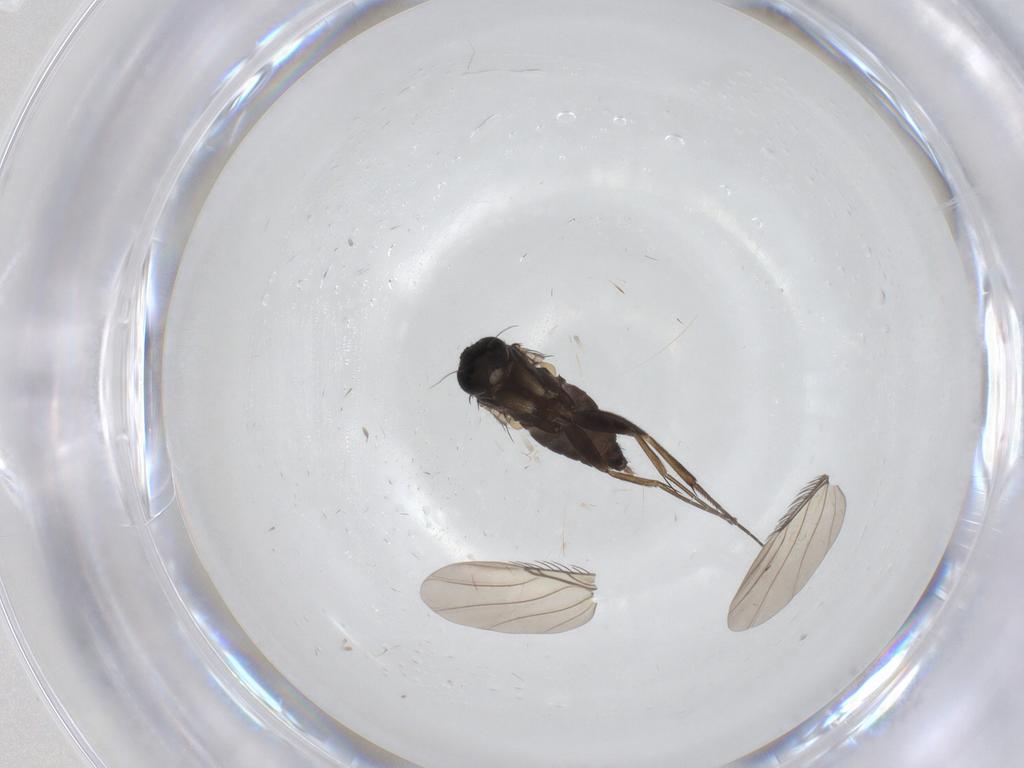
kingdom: Animalia
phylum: Arthropoda
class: Insecta
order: Diptera
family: Phoridae
